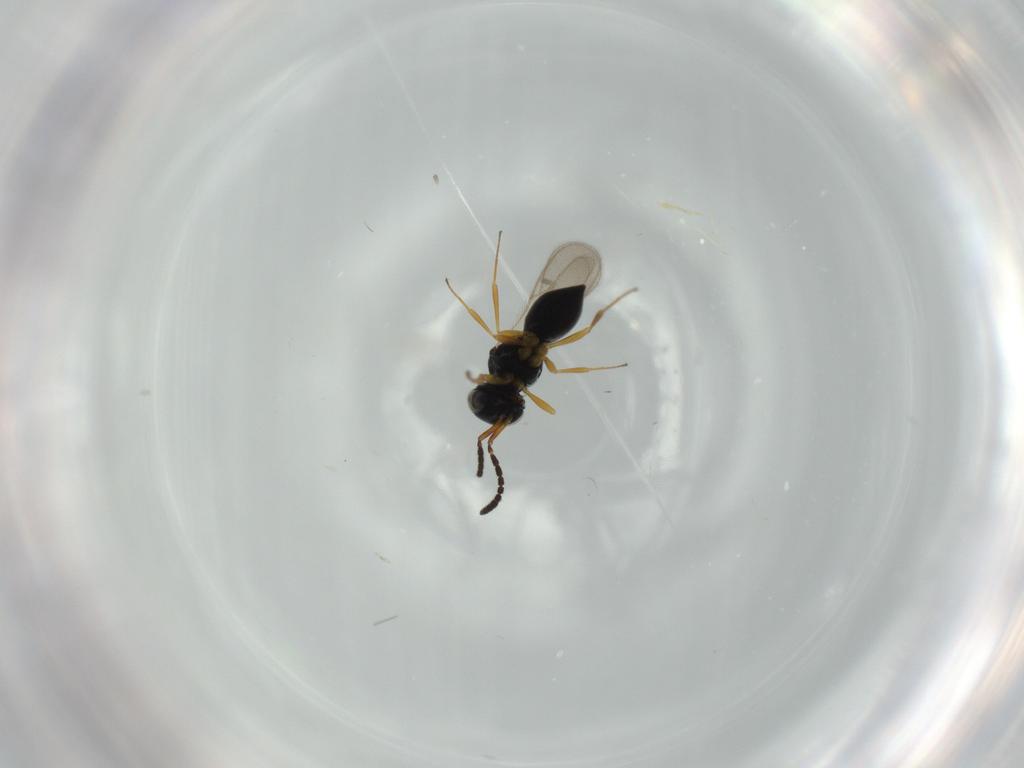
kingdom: Animalia
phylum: Arthropoda
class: Insecta
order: Hymenoptera
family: Scelionidae
